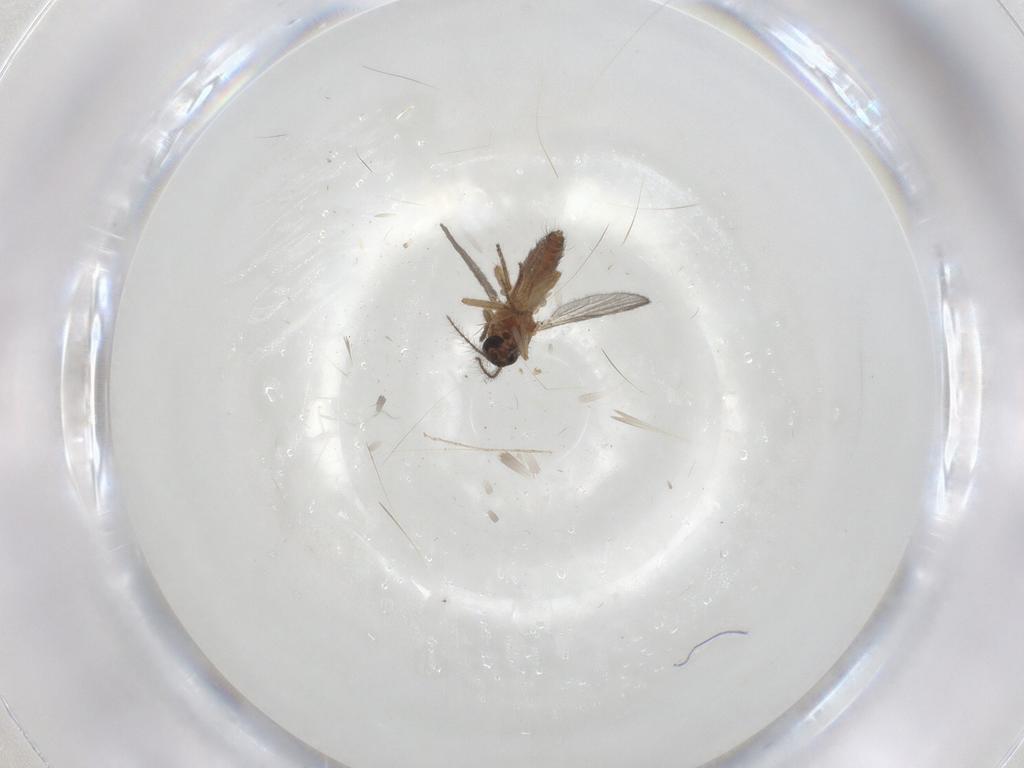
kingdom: Animalia
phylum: Arthropoda
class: Insecta
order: Diptera
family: Ceratopogonidae
